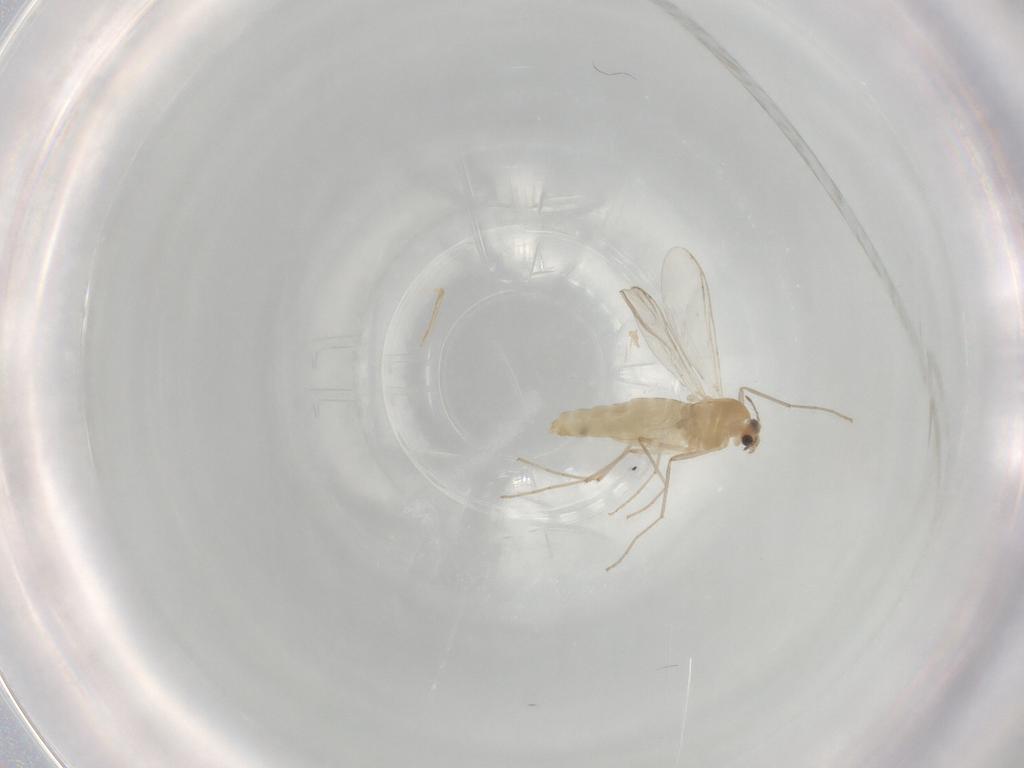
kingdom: Animalia
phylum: Arthropoda
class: Insecta
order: Diptera
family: Chironomidae
